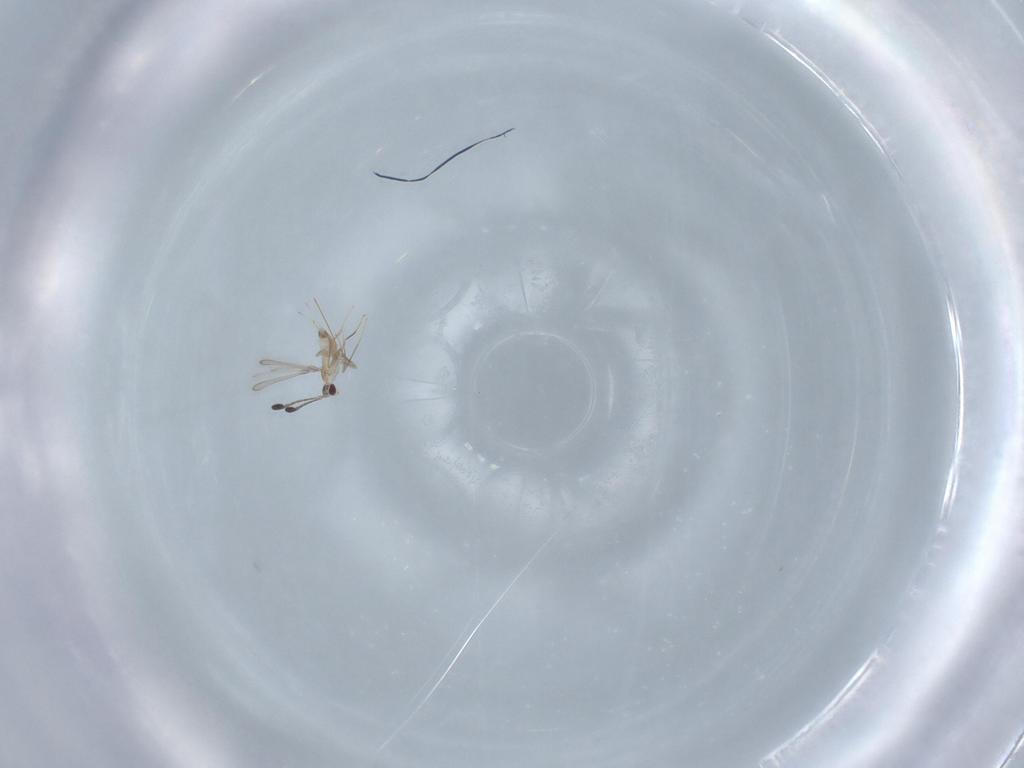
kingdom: Animalia
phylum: Arthropoda
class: Insecta
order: Hymenoptera
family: Mymaridae
